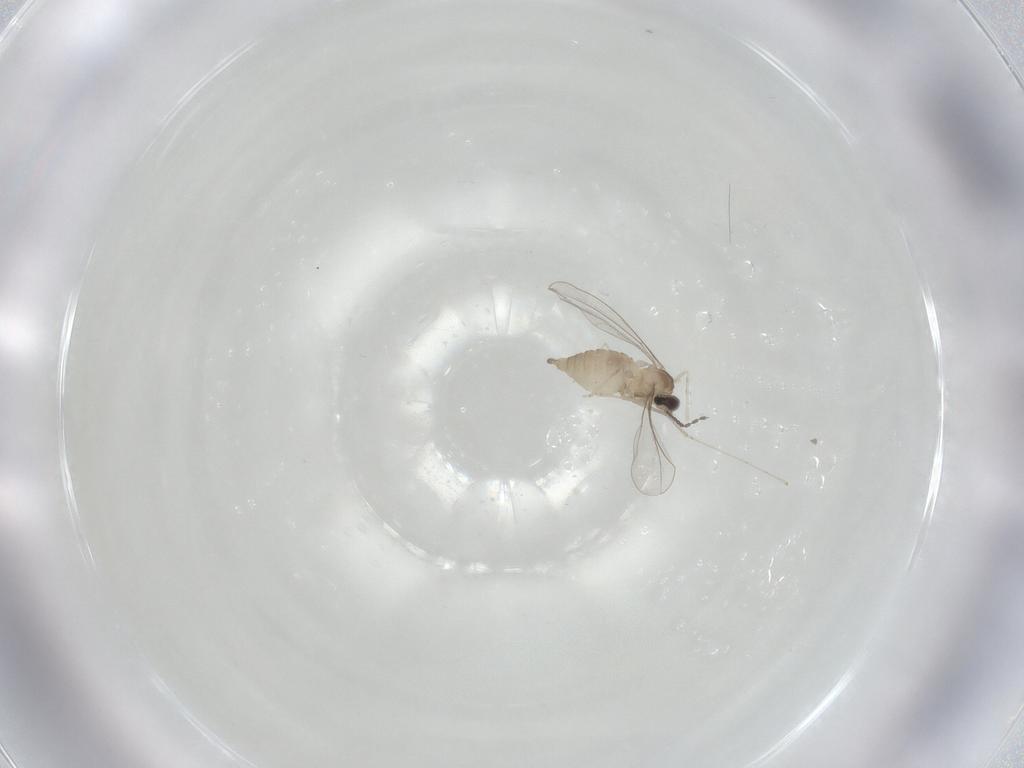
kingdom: Animalia
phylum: Arthropoda
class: Insecta
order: Diptera
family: Cecidomyiidae
